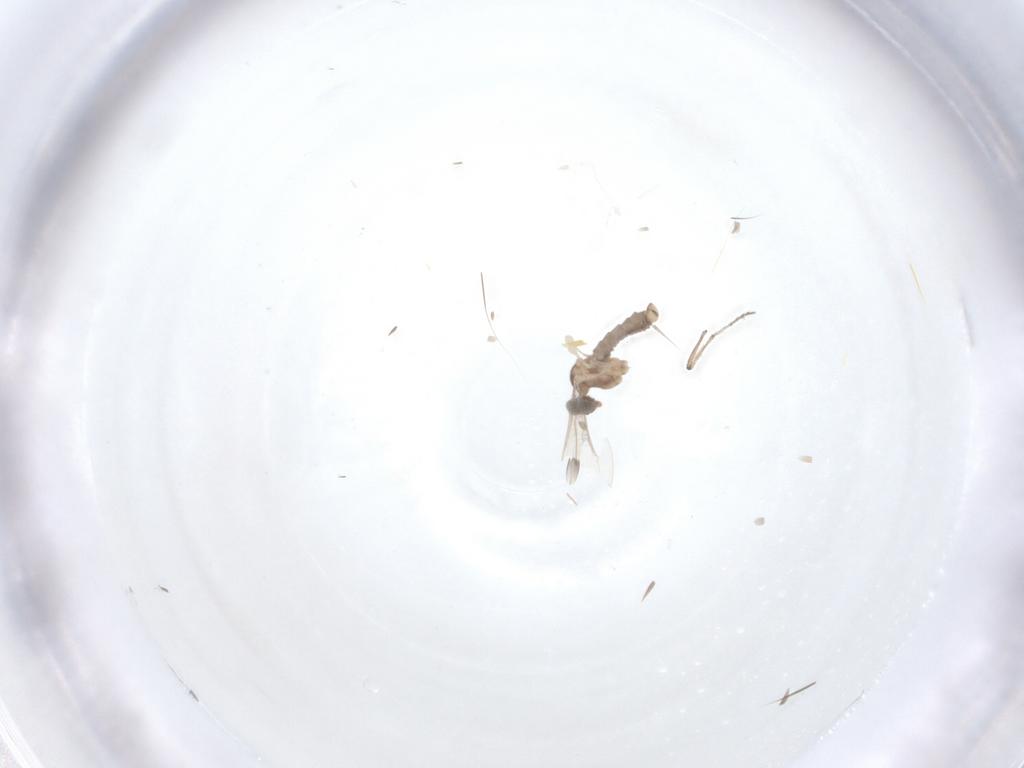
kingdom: Animalia
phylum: Arthropoda
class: Insecta
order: Diptera
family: Ceratopogonidae
